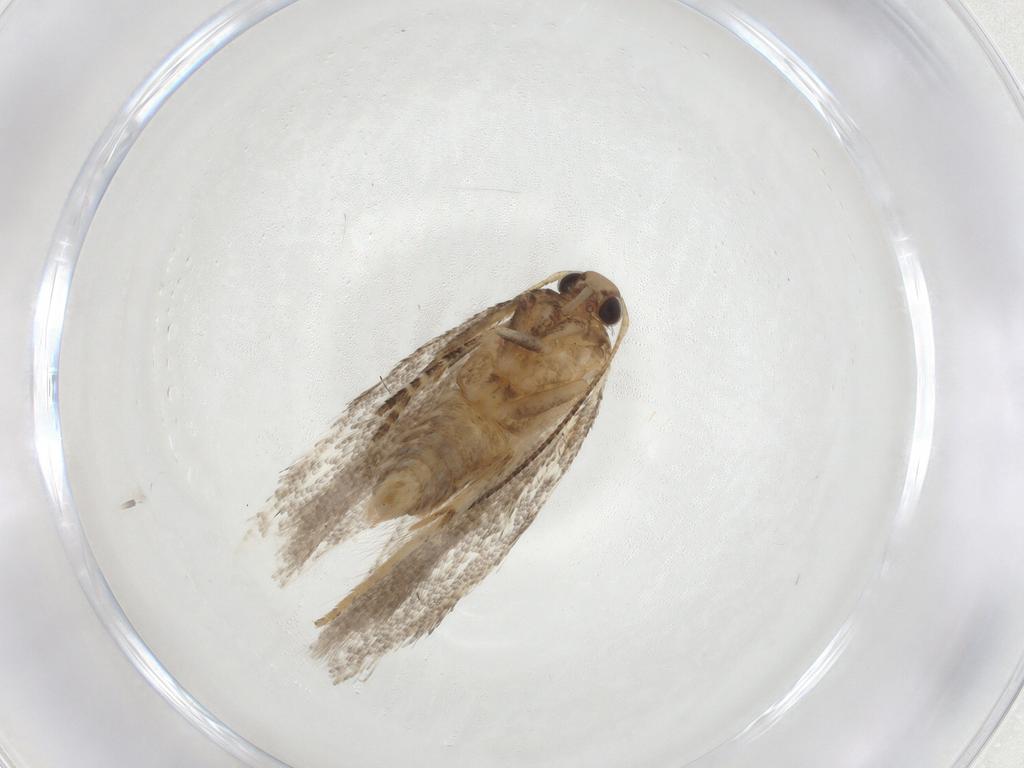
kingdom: Animalia
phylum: Arthropoda
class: Insecta
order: Lepidoptera
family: Gelechiidae
